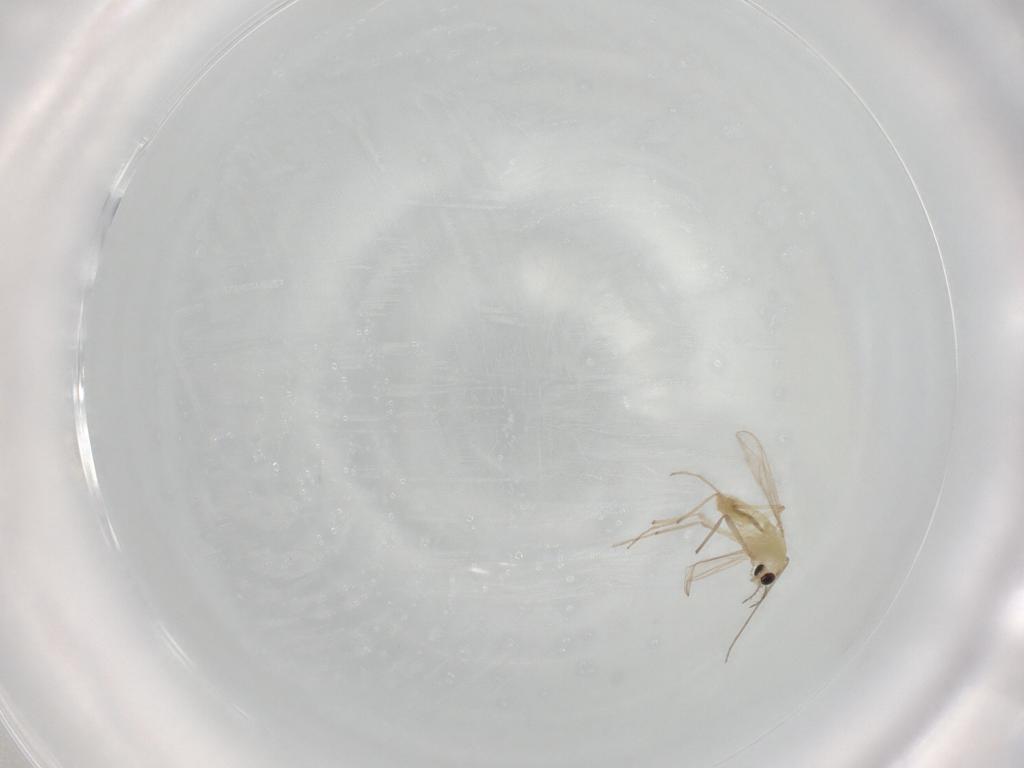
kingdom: Animalia
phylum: Arthropoda
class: Insecta
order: Diptera
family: Chironomidae
